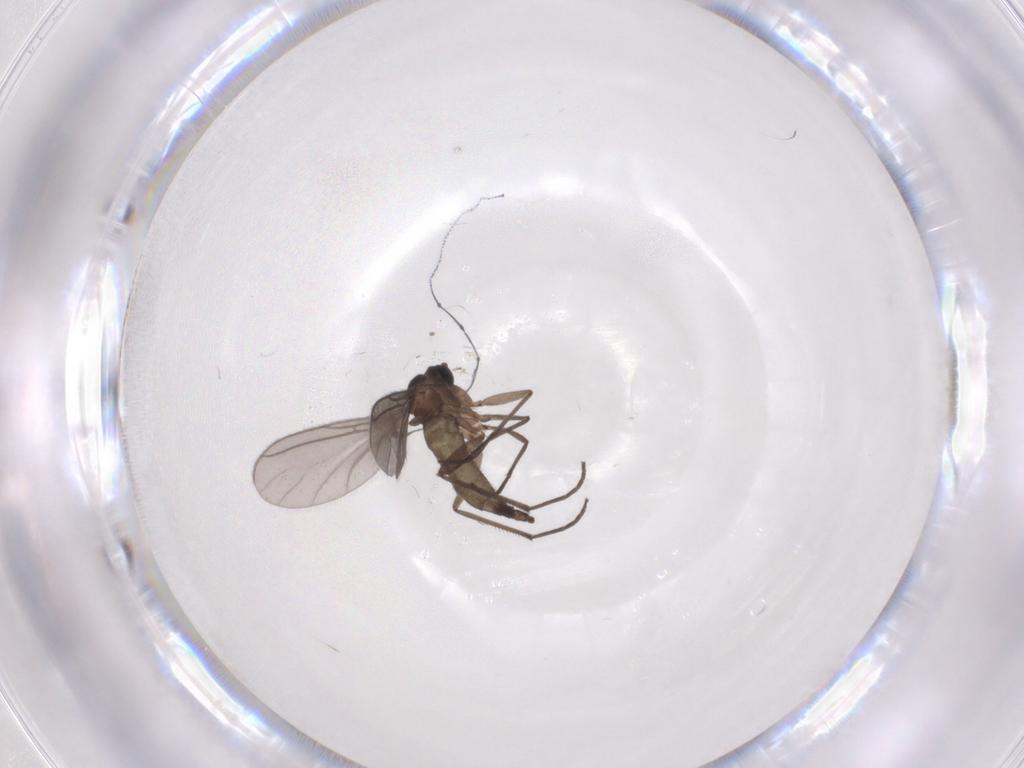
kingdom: Animalia
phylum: Arthropoda
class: Insecta
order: Diptera
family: Sciaridae
